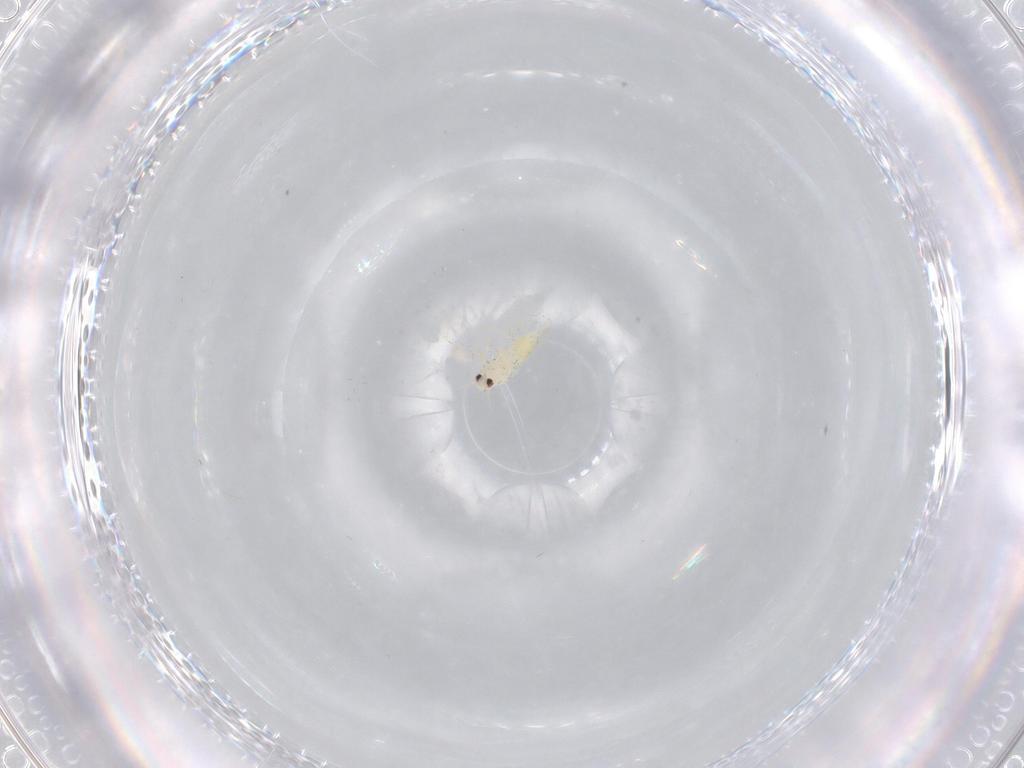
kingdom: Animalia
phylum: Arthropoda
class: Insecta
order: Hemiptera
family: Aleyrodidae
